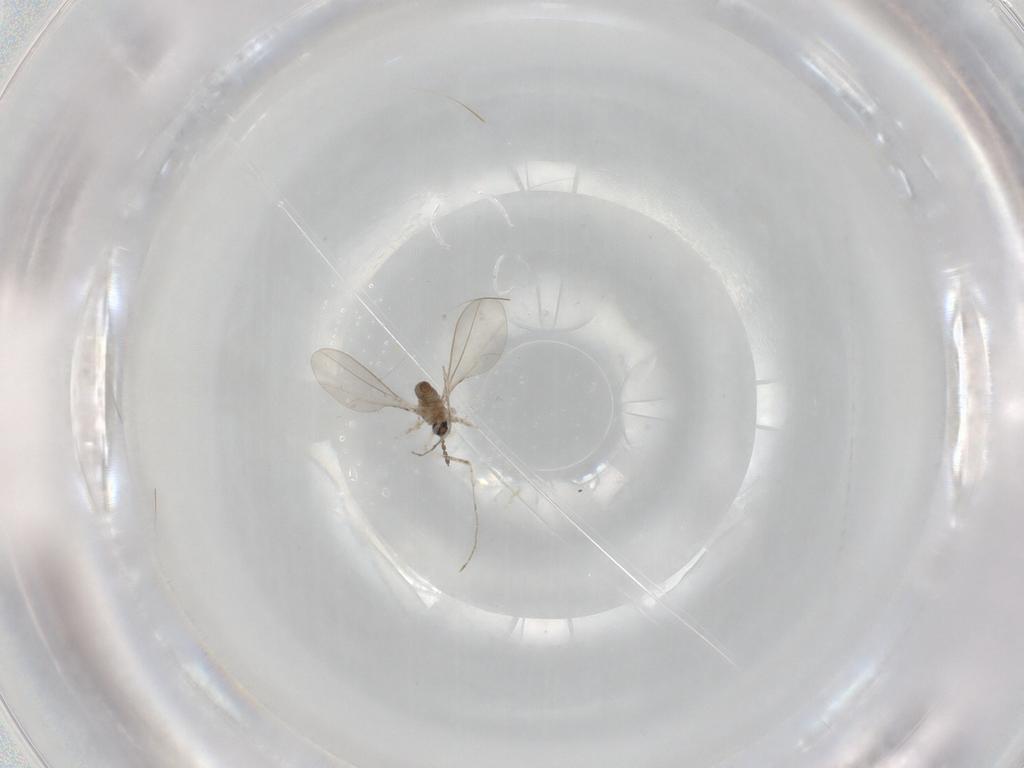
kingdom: Animalia
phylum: Arthropoda
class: Insecta
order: Diptera
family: Cecidomyiidae
